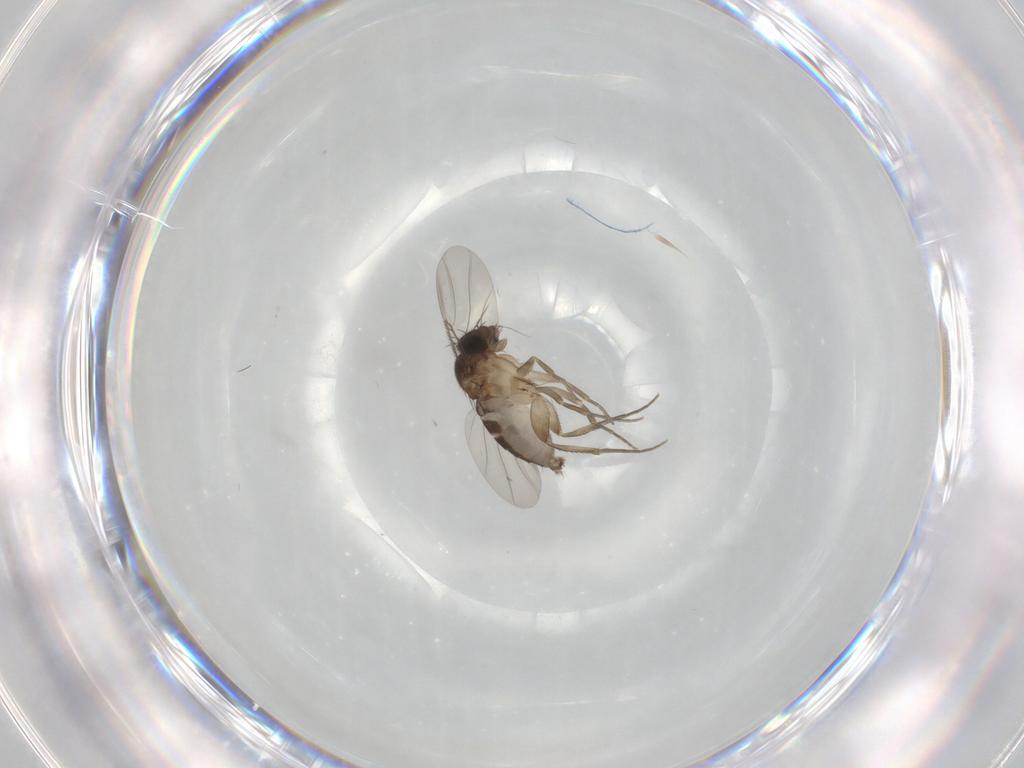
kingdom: Animalia
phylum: Arthropoda
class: Insecta
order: Diptera
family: Phoridae
